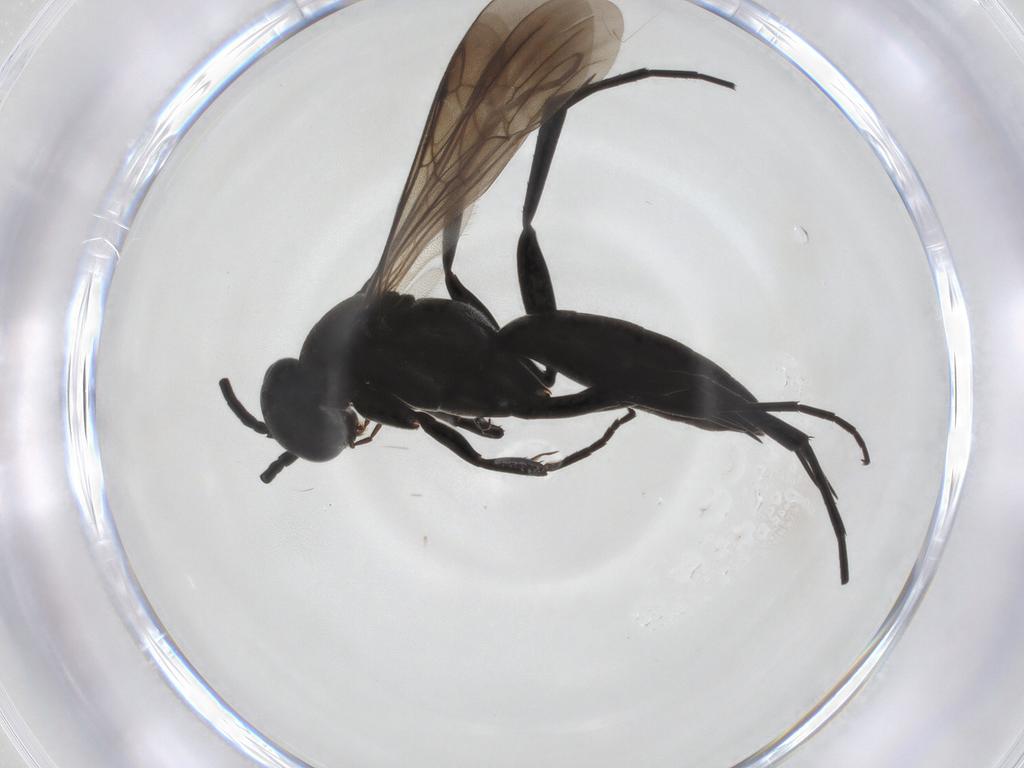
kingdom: Animalia
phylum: Arthropoda
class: Insecta
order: Hymenoptera
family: Pompilidae
